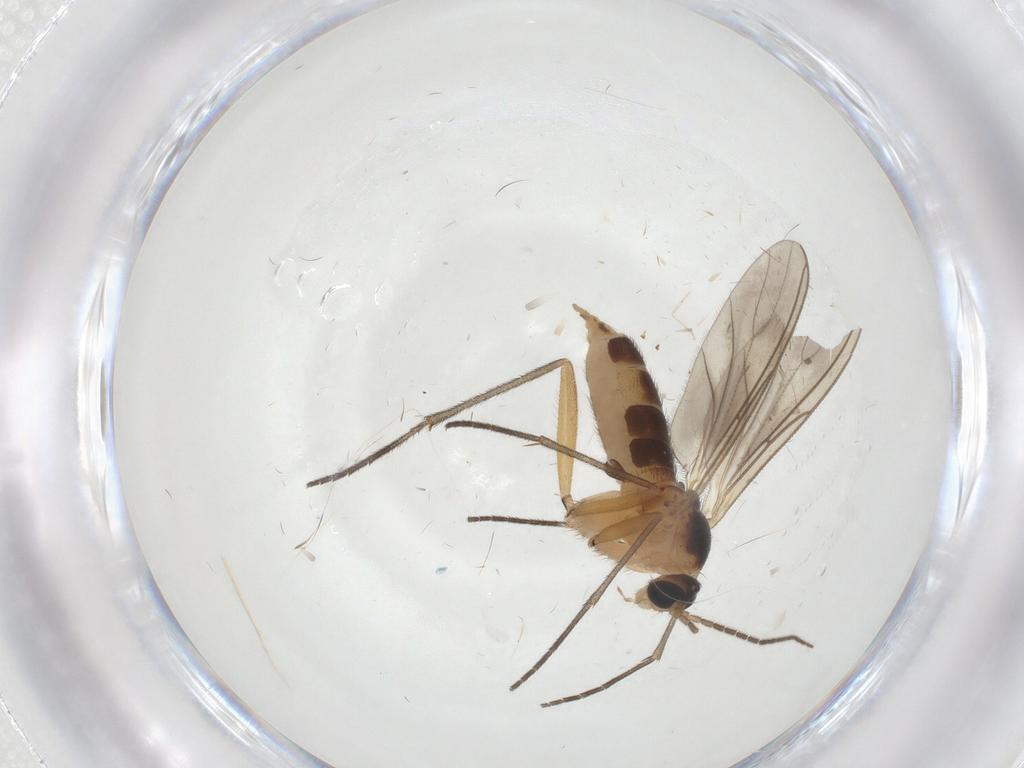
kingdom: Animalia
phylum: Arthropoda
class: Insecta
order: Diptera
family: Sciaridae
